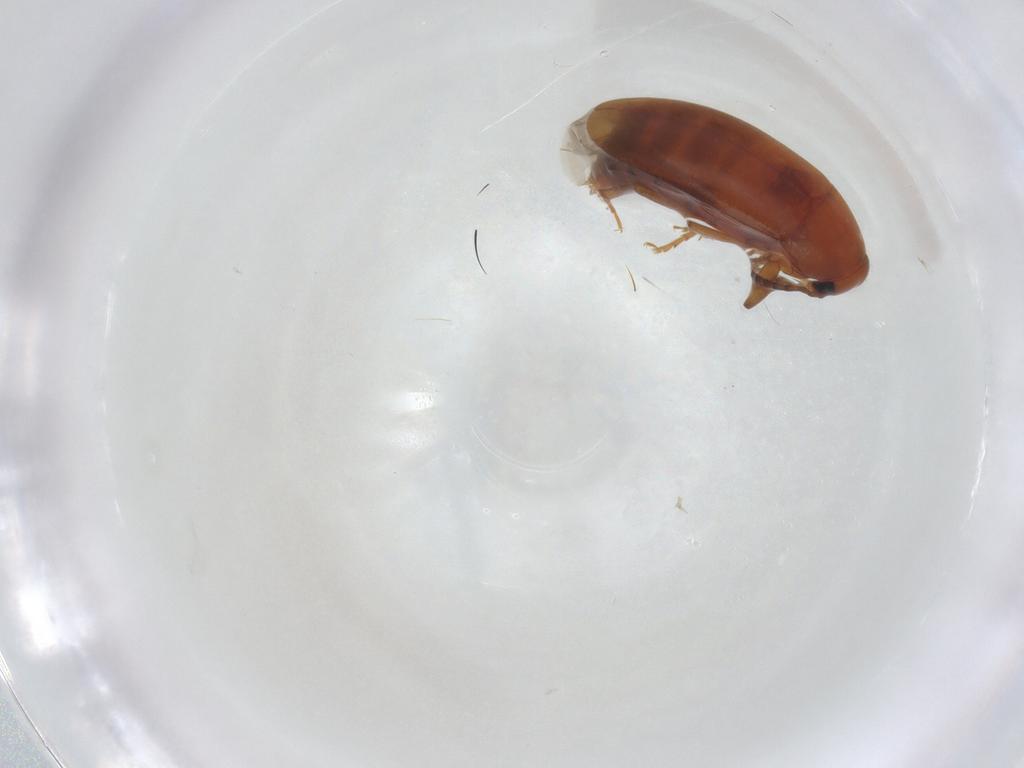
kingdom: Animalia
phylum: Arthropoda
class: Insecta
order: Coleoptera
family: Scraptiidae
